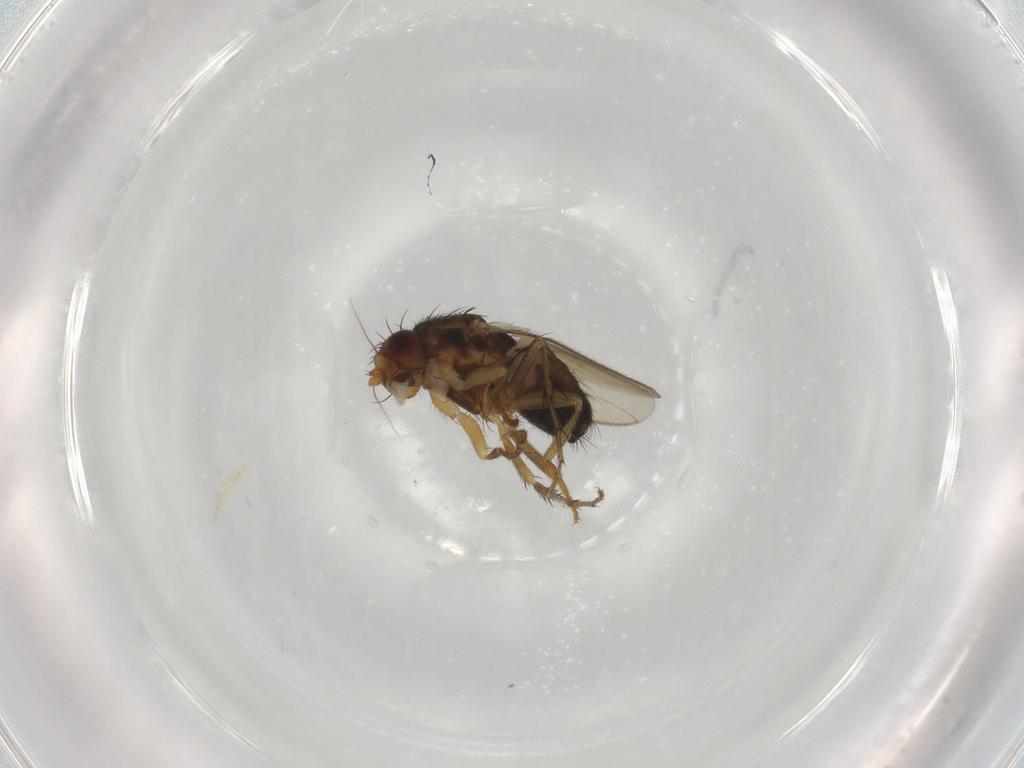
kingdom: Animalia
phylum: Arthropoda
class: Insecta
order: Diptera
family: Sphaeroceridae
